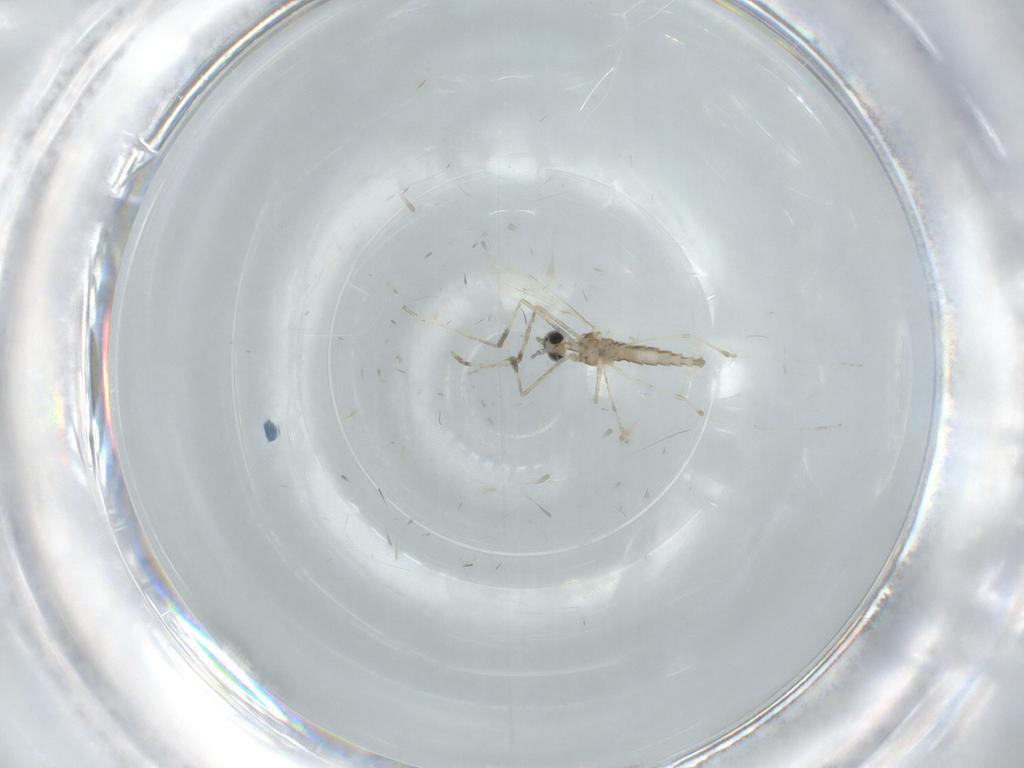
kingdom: Animalia
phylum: Arthropoda
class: Insecta
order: Diptera
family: Cecidomyiidae
